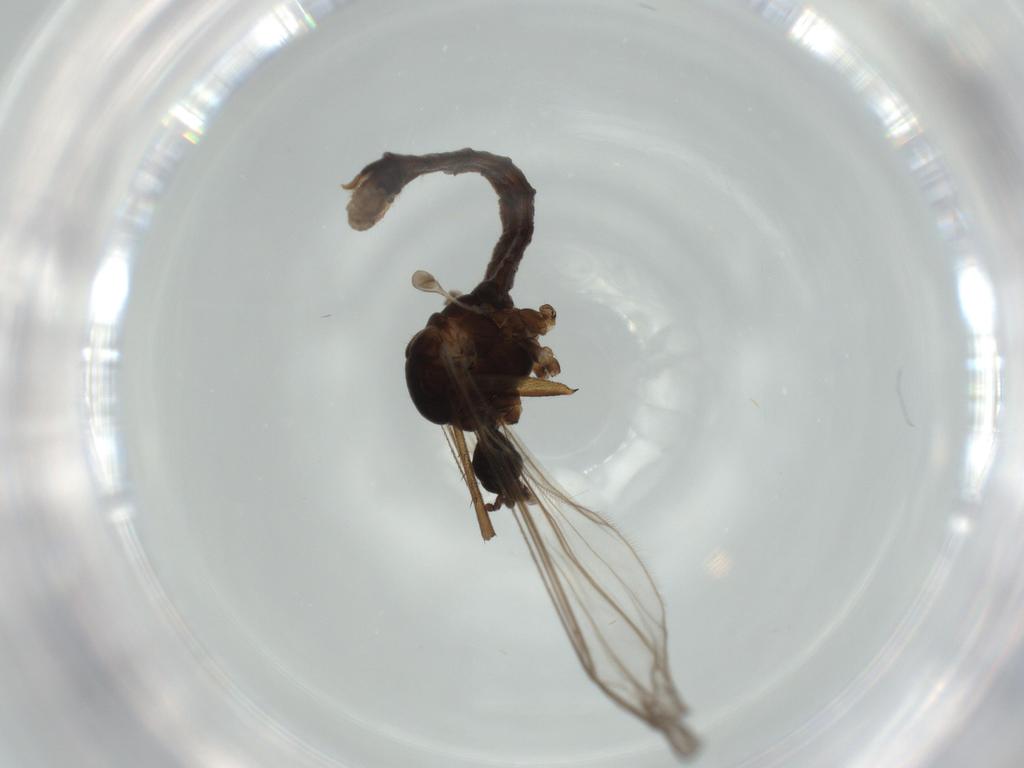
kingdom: Animalia
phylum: Arthropoda
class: Insecta
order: Diptera
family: Syrphidae
